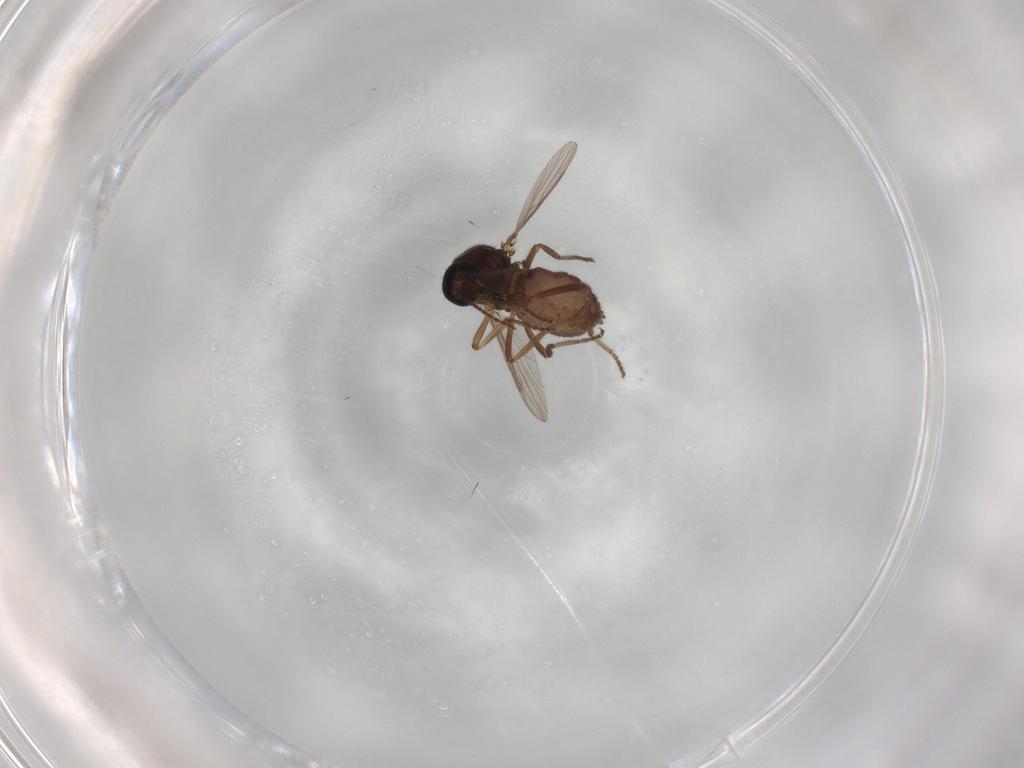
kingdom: Animalia
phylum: Arthropoda
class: Insecta
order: Diptera
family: Ceratopogonidae
